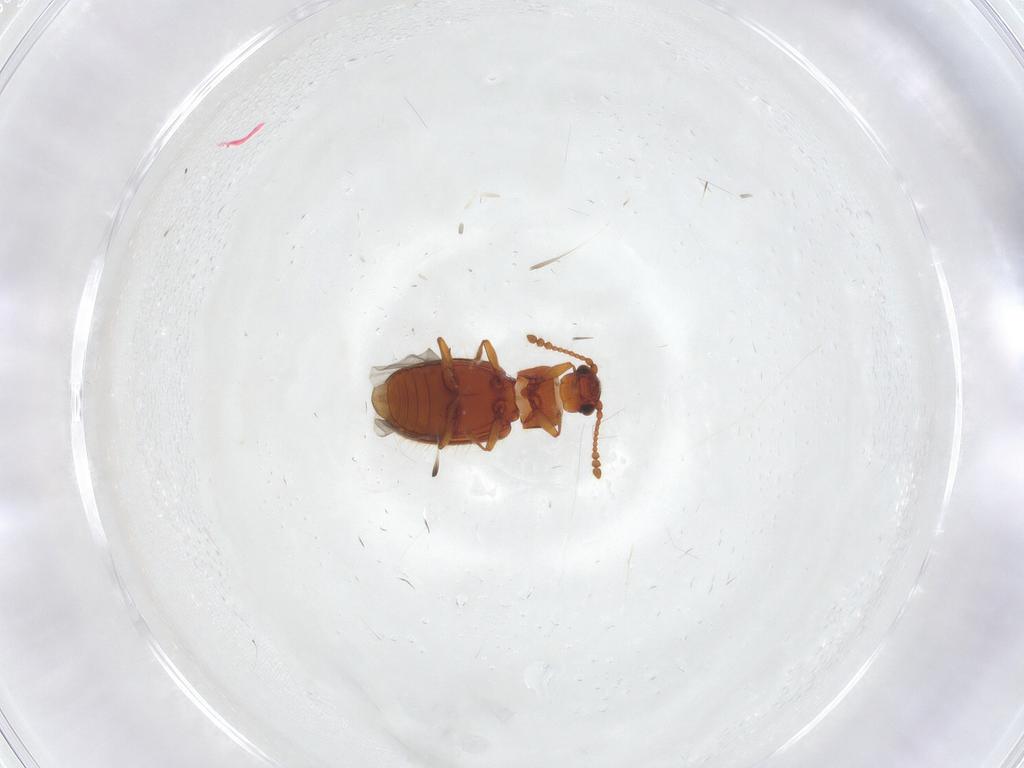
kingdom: Animalia
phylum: Arthropoda
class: Insecta
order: Coleoptera
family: Cryptophagidae
